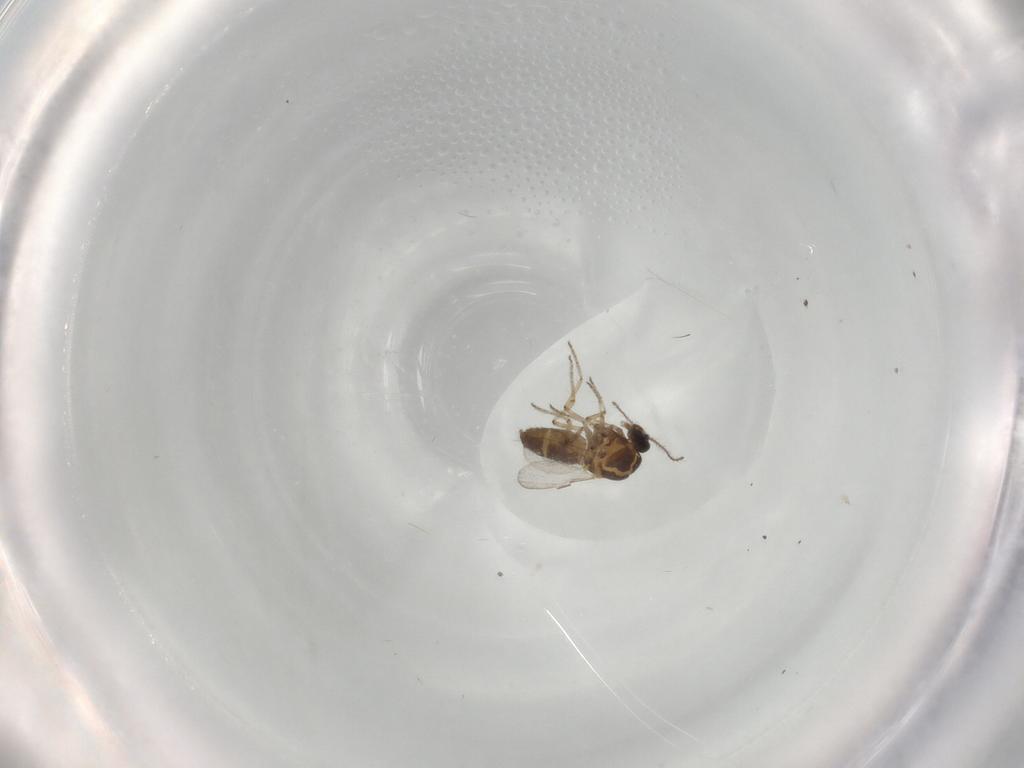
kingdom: Animalia
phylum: Arthropoda
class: Insecta
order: Diptera
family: Ceratopogonidae
